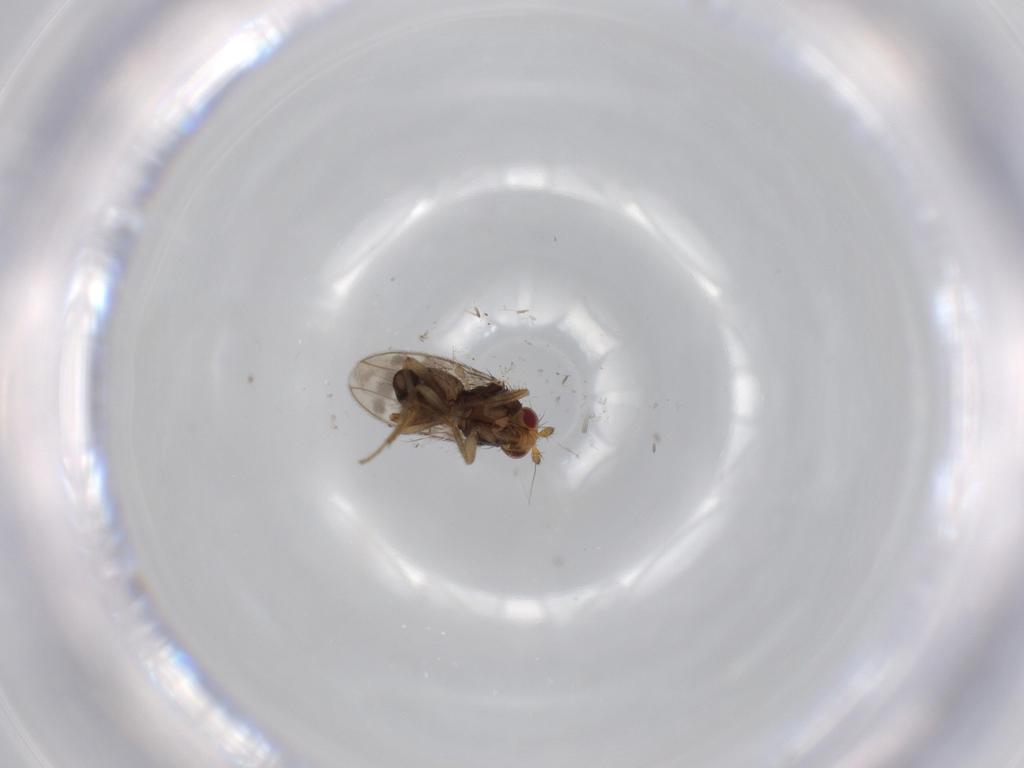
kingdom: Animalia
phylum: Arthropoda
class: Insecta
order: Diptera
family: Sphaeroceridae
